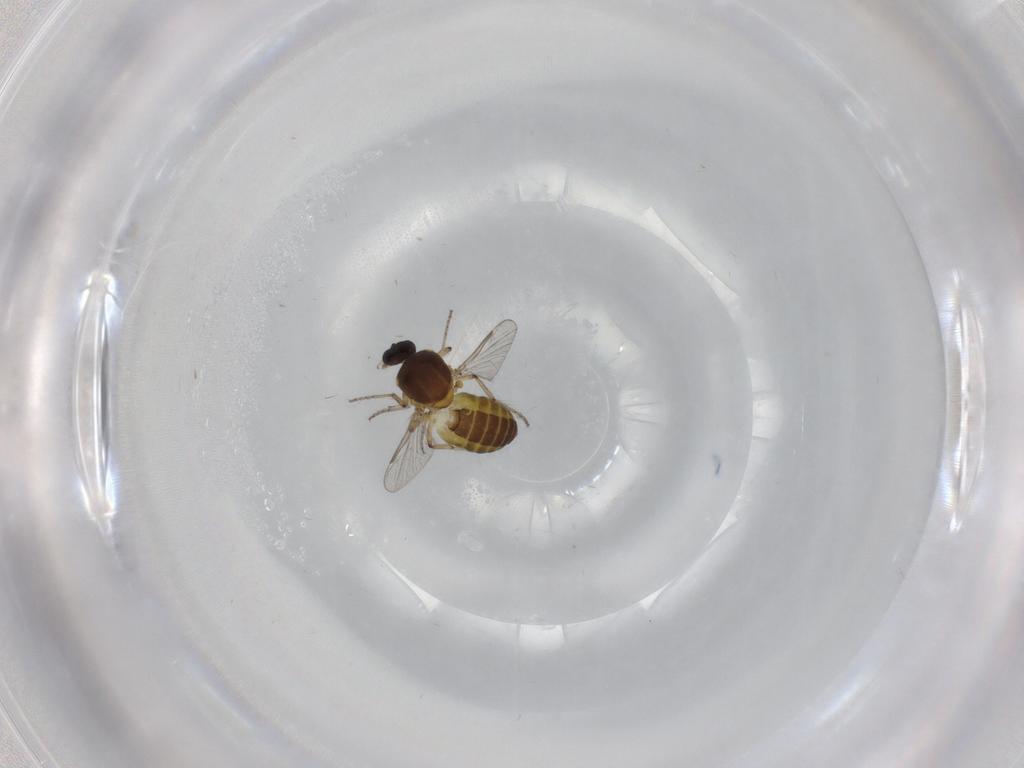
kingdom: Animalia
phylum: Arthropoda
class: Insecta
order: Diptera
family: Ceratopogonidae
